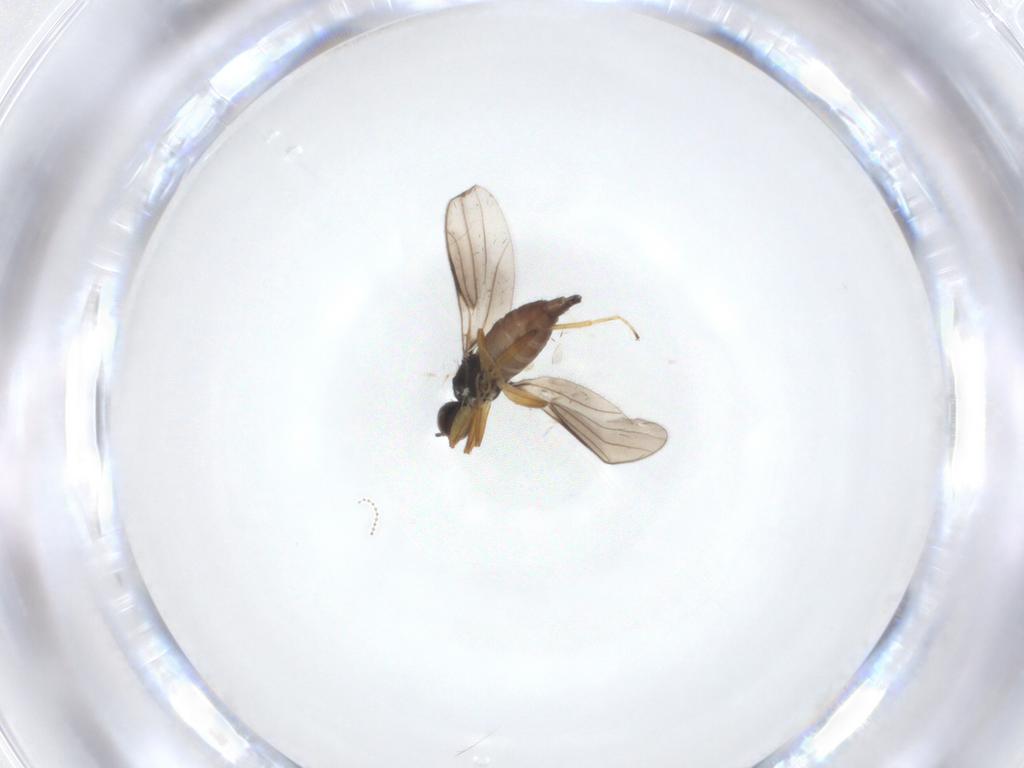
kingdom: Animalia
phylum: Arthropoda
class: Insecta
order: Diptera
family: Hybotidae
